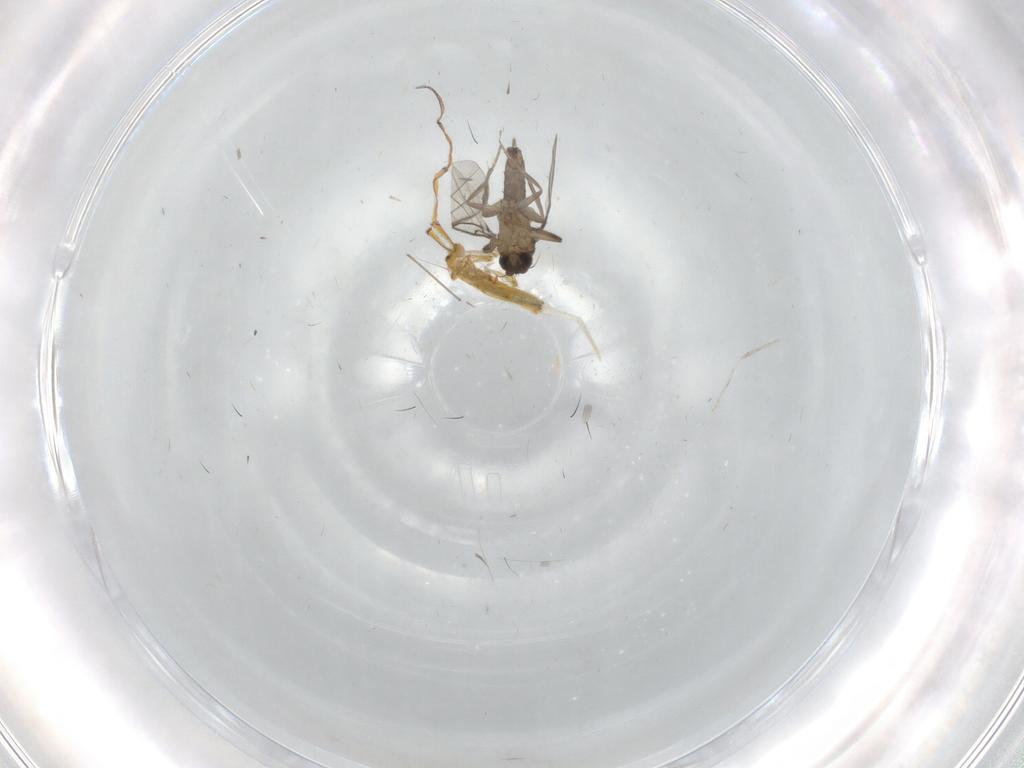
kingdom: Animalia
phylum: Arthropoda
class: Insecta
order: Diptera
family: Phoridae
